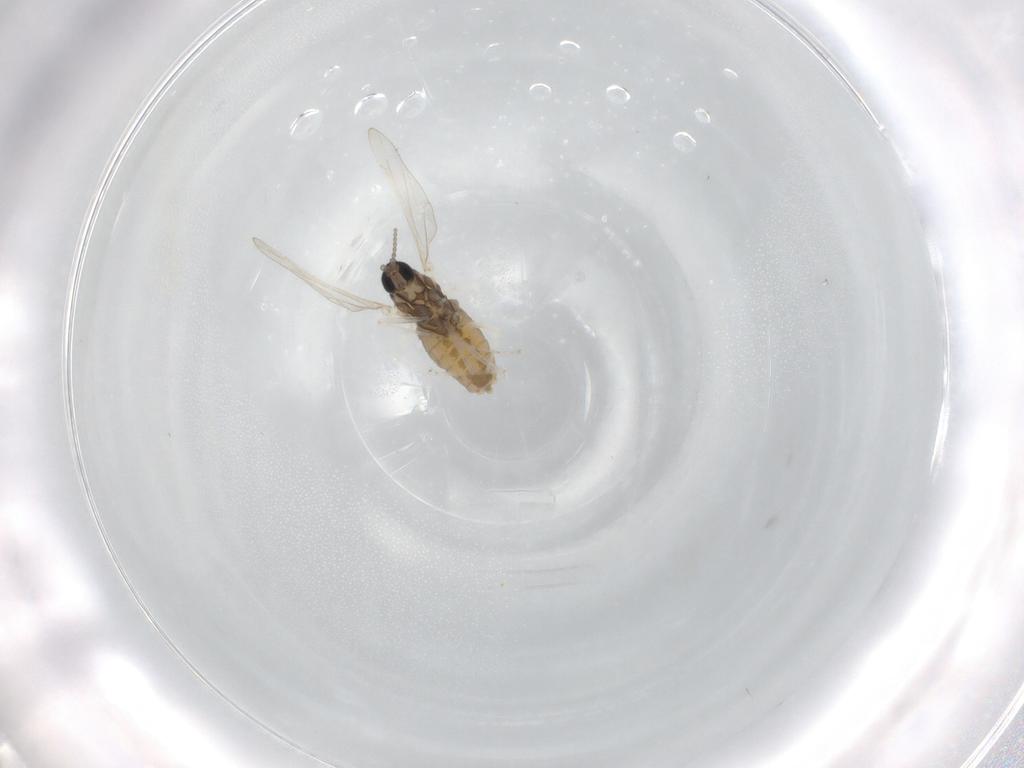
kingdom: Animalia
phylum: Arthropoda
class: Insecta
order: Diptera
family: Cecidomyiidae
